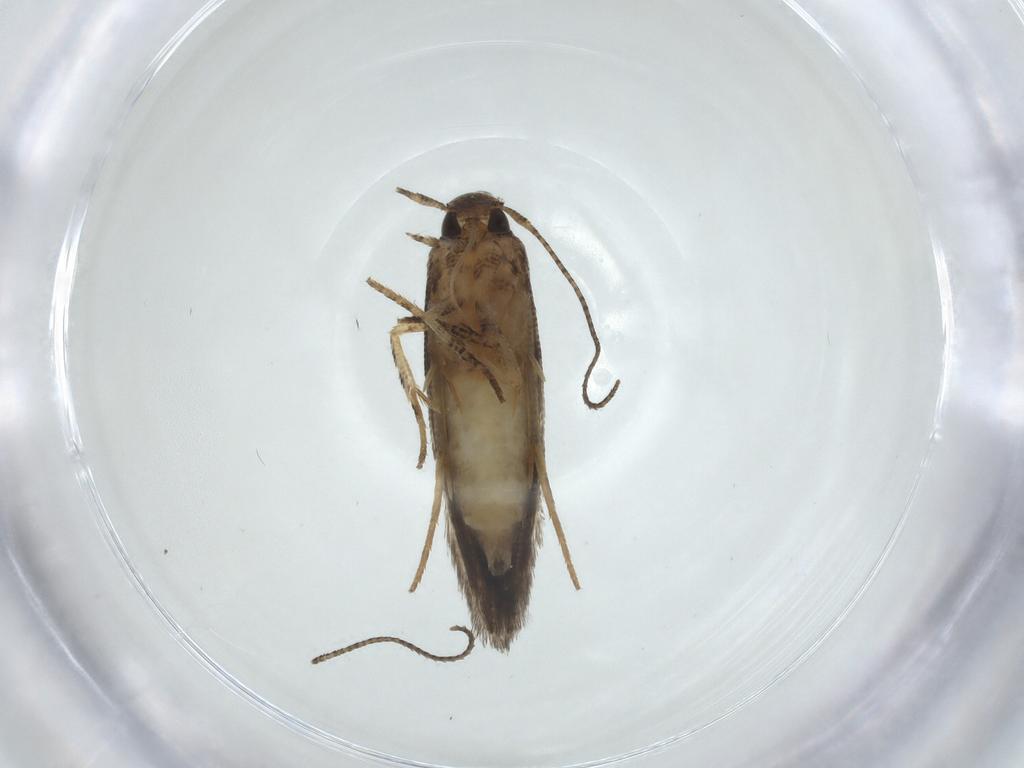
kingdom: Animalia
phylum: Arthropoda
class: Insecta
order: Lepidoptera
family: Elachistidae
